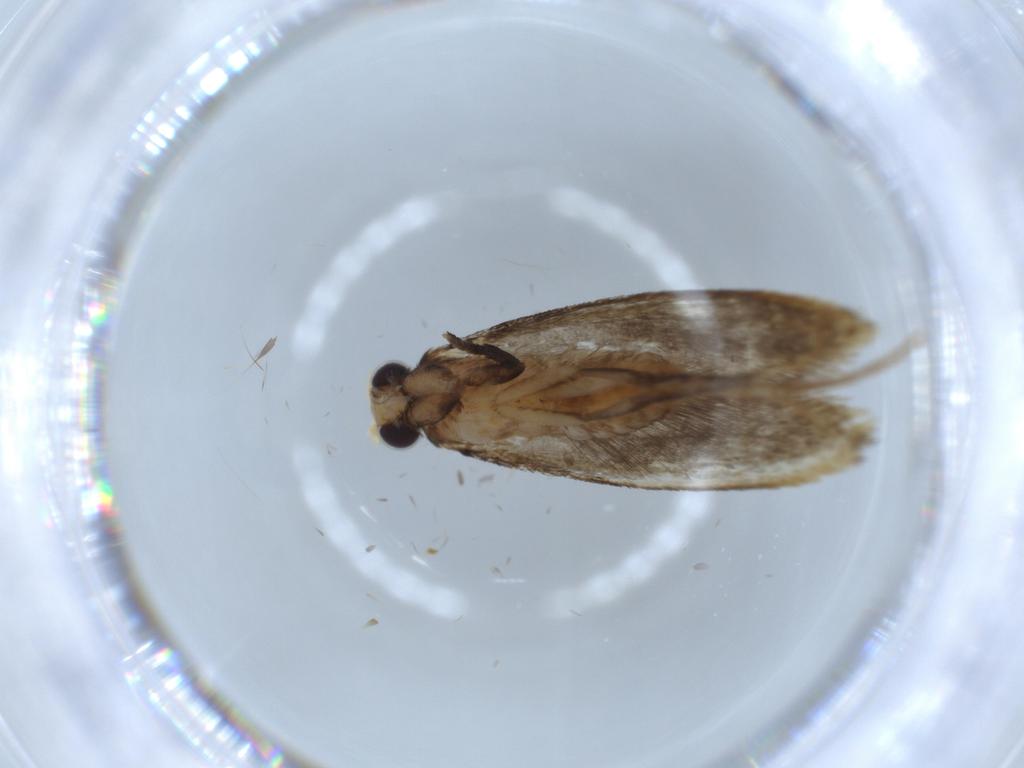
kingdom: Animalia
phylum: Arthropoda
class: Insecta
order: Lepidoptera
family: Tineidae
